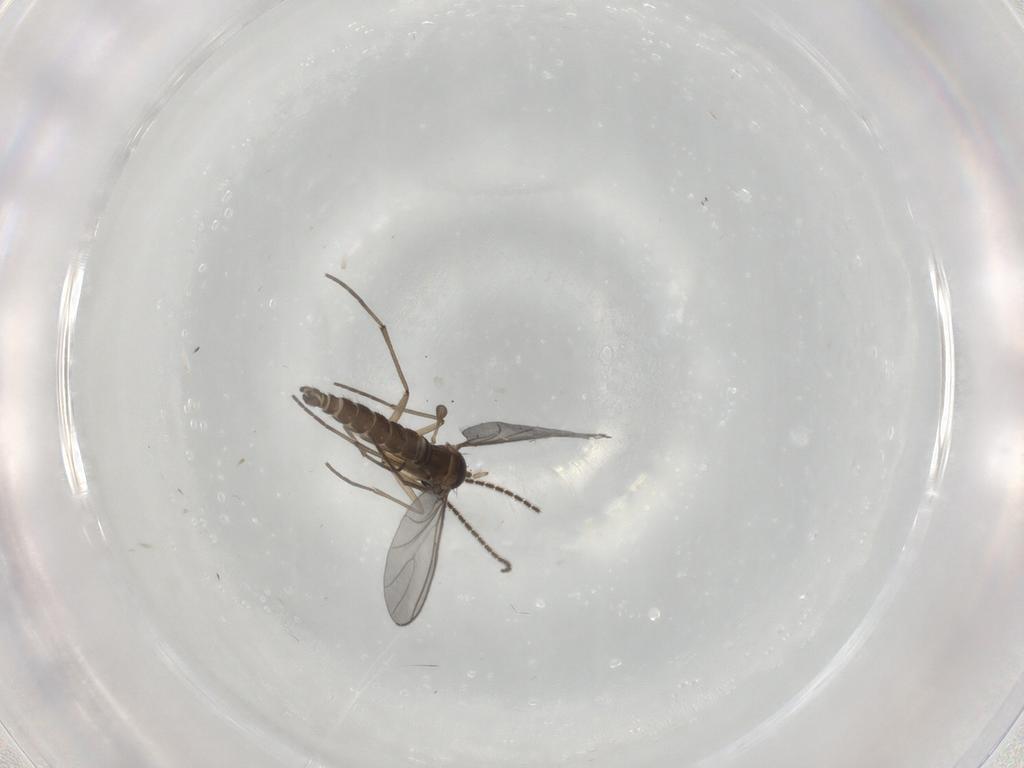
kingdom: Animalia
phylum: Arthropoda
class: Insecta
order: Diptera
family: Sciaridae
